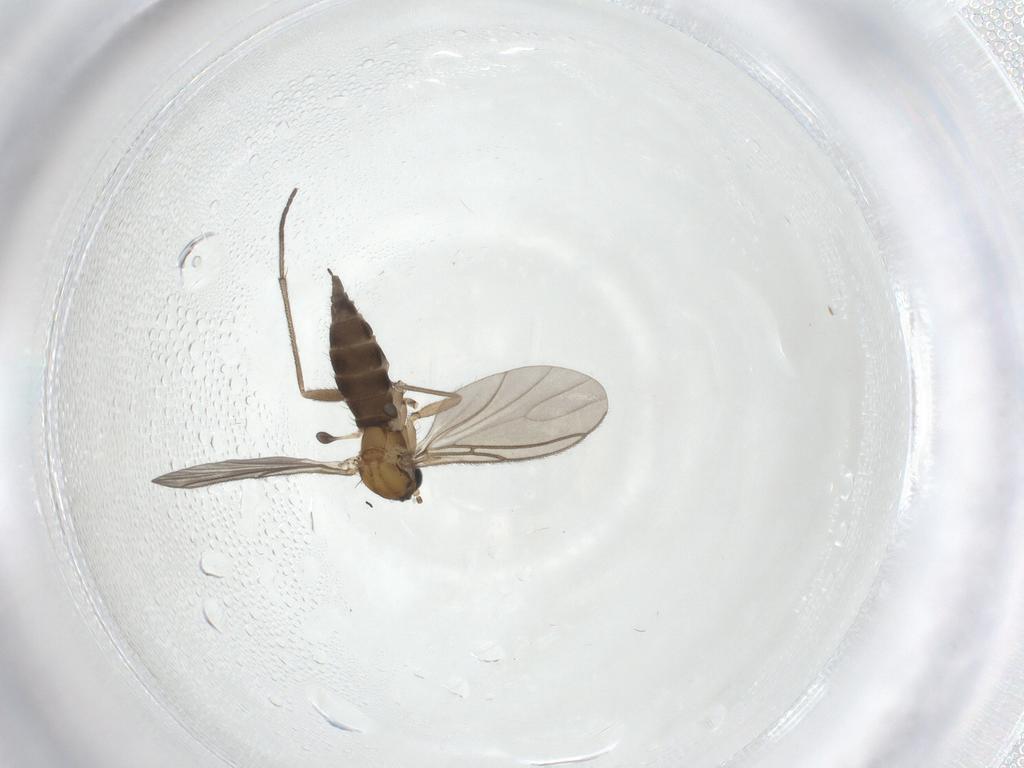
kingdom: Animalia
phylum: Arthropoda
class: Insecta
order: Diptera
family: Sciaridae
